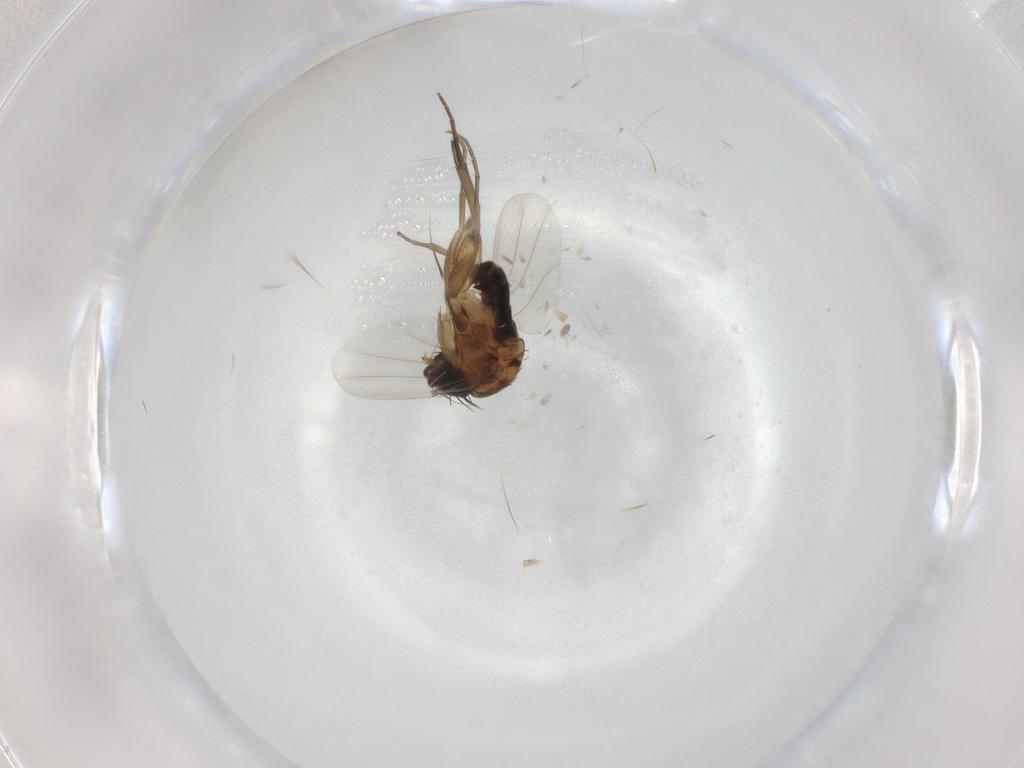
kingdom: Animalia
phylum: Arthropoda
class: Insecta
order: Diptera
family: Phoridae
